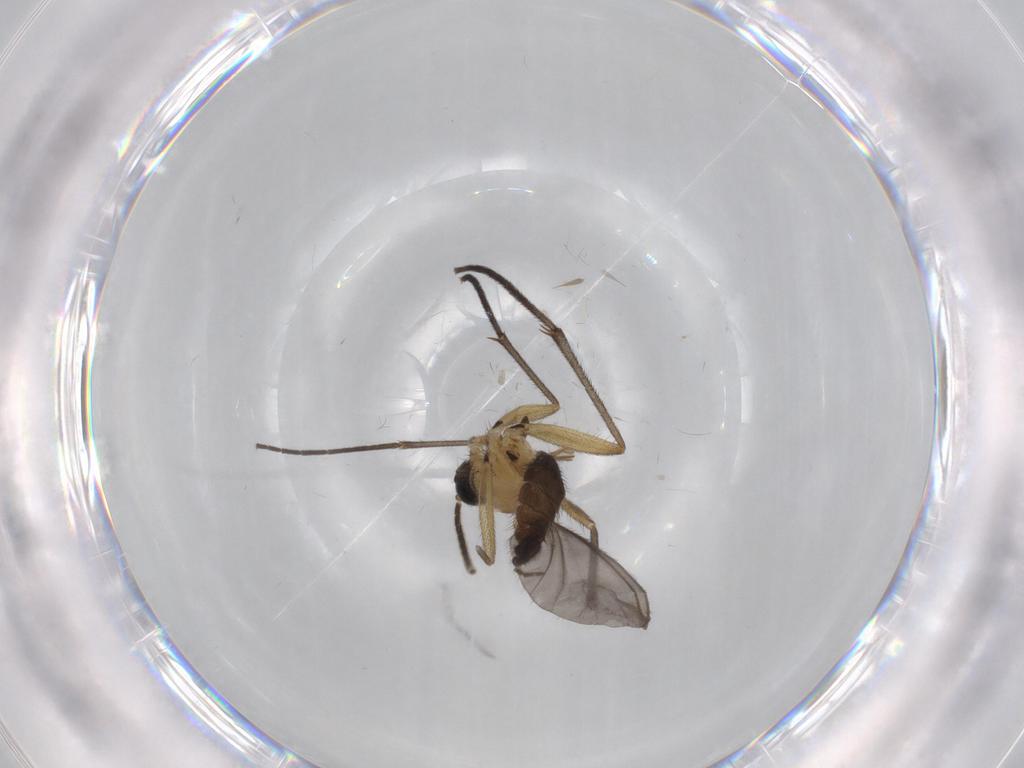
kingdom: Animalia
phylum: Arthropoda
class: Insecta
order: Diptera
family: Sciaridae
